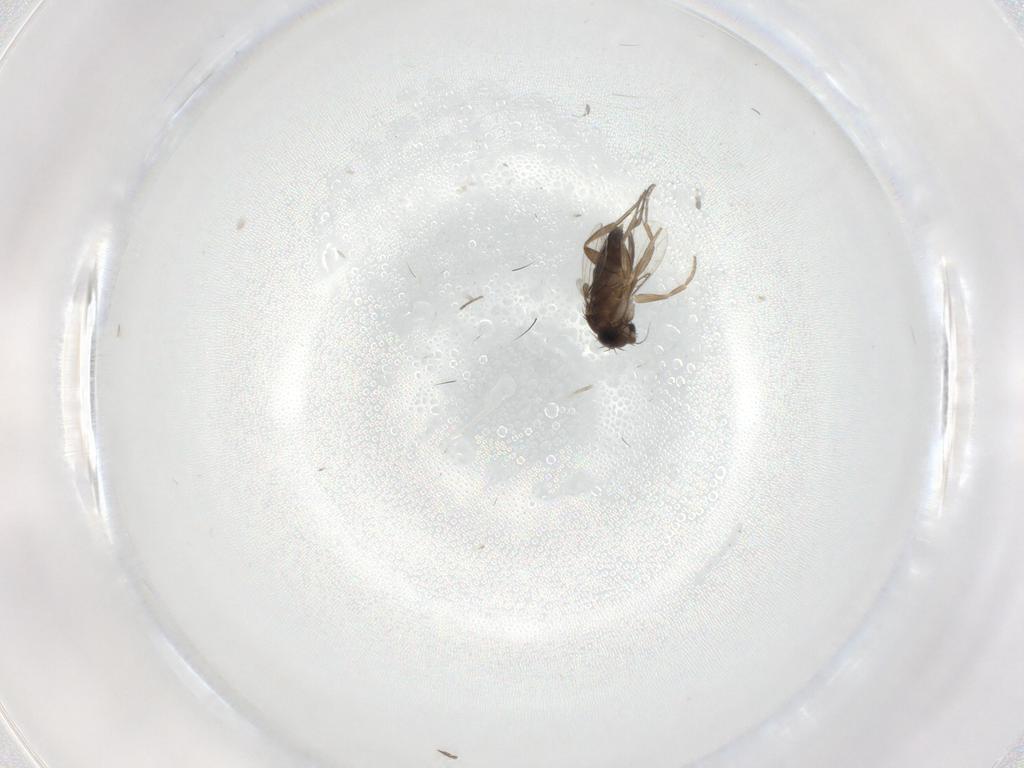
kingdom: Animalia
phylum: Arthropoda
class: Insecta
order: Diptera
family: Phoridae
